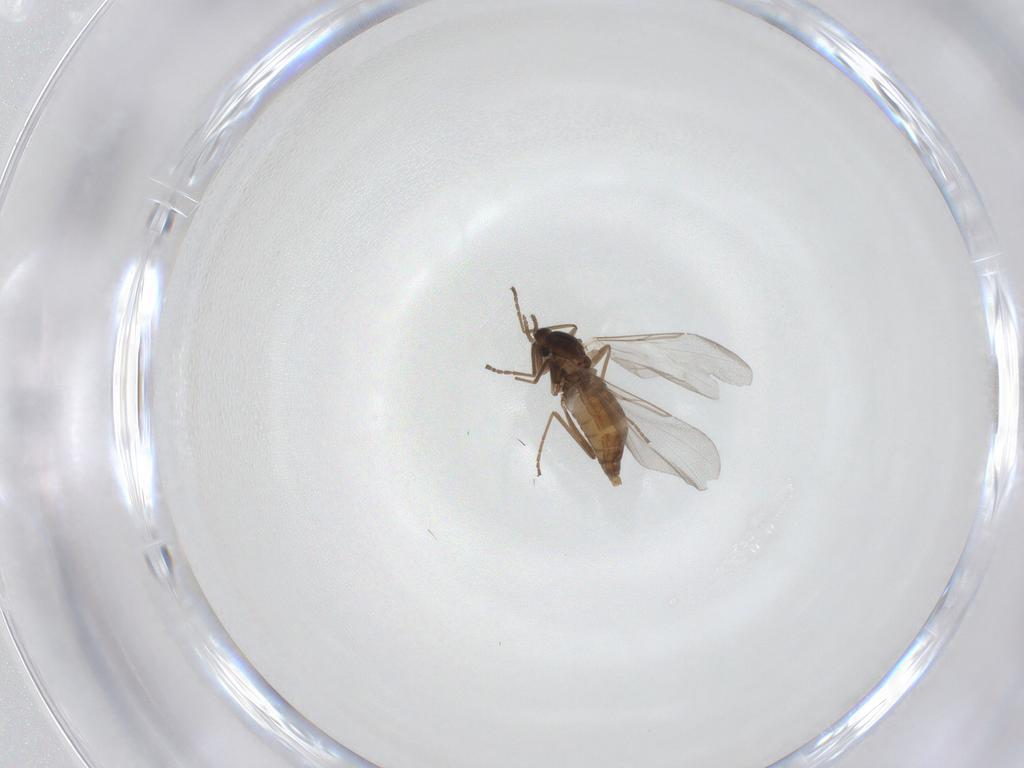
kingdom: Animalia
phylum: Arthropoda
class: Insecta
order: Diptera
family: Cecidomyiidae
